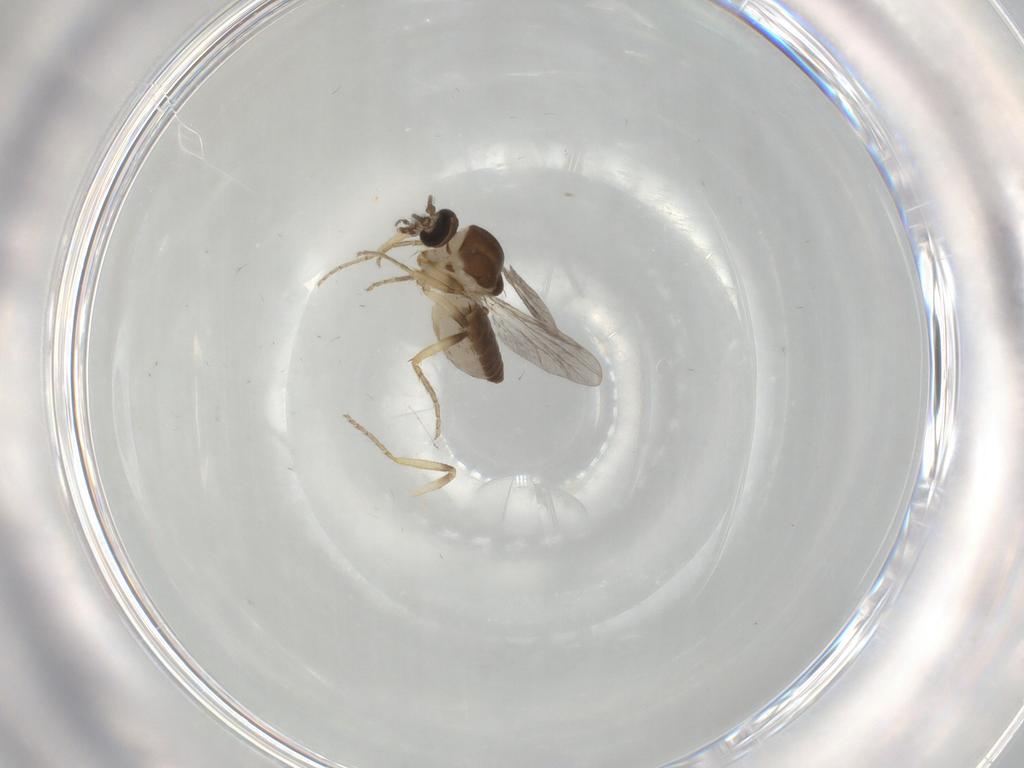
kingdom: Animalia
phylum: Arthropoda
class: Insecta
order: Diptera
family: Ceratopogonidae
